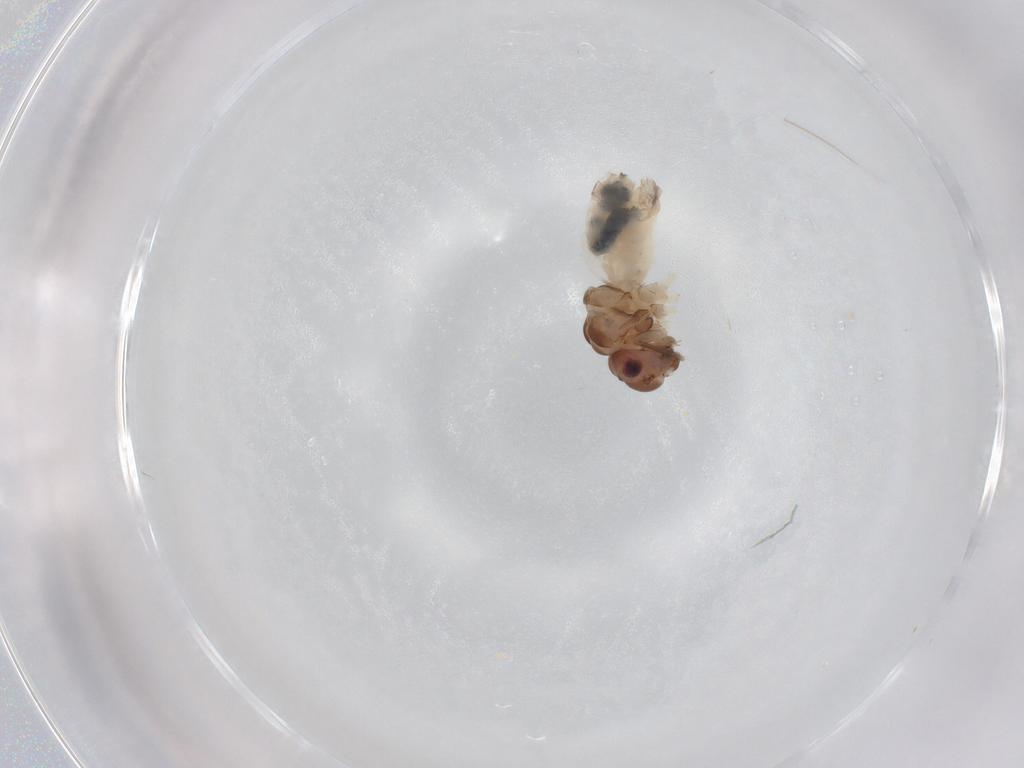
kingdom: Animalia
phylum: Arthropoda
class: Insecta
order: Psocodea
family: Peripsocidae
